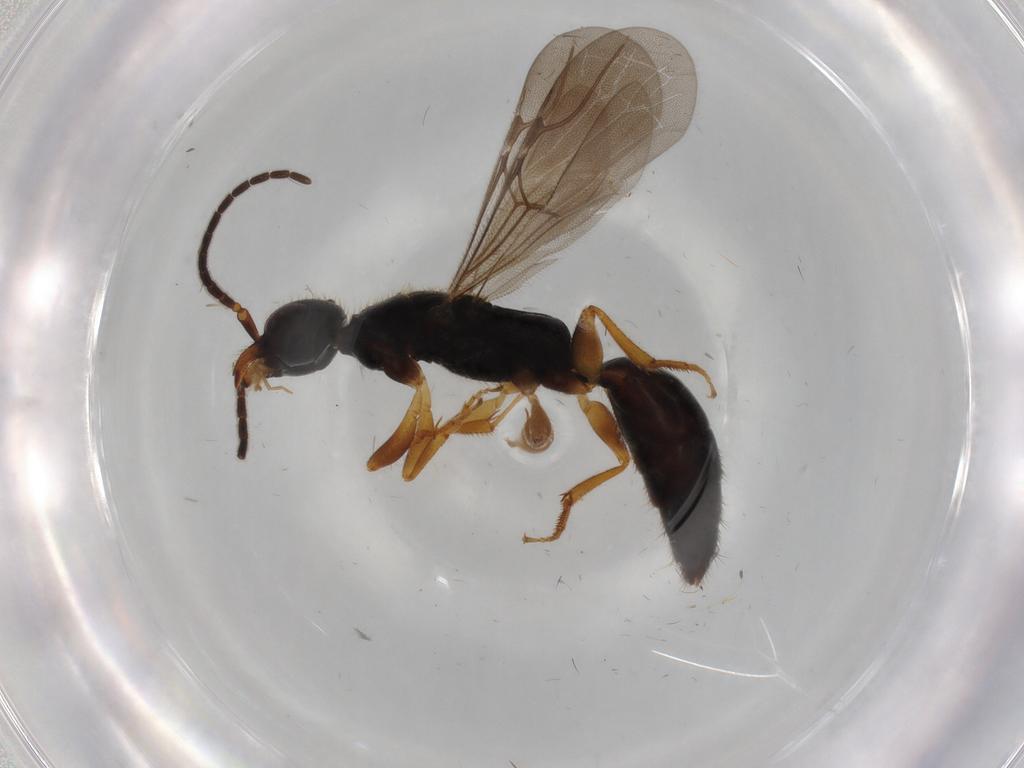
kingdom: Animalia
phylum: Arthropoda
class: Insecta
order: Hymenoptera
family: Bethylidae
